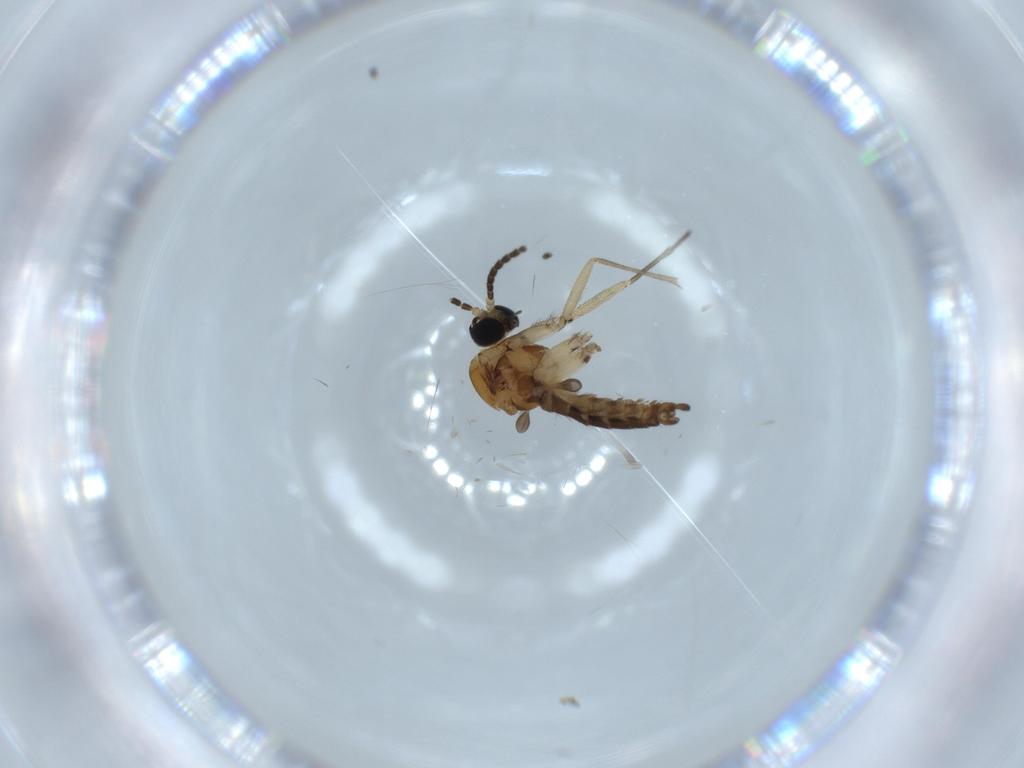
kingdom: Animalia
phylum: Arthropoda
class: Insecta
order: Diptera
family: Sciaridae
